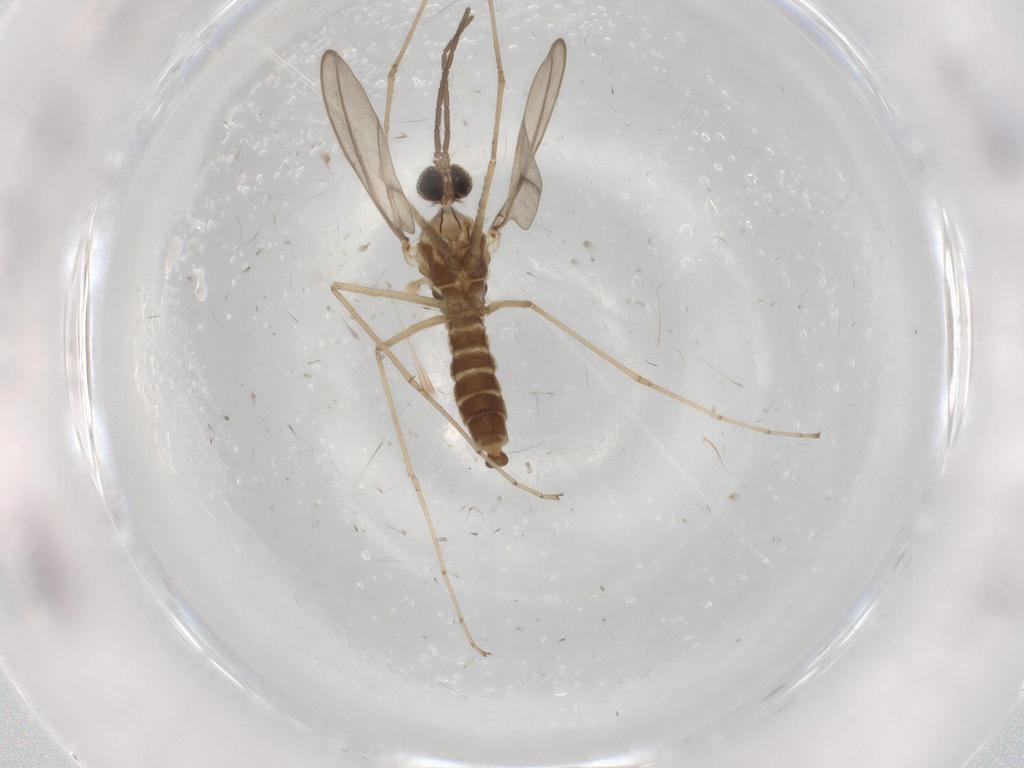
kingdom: Animalia
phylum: Arthropoda
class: Insecta
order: Diptera
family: Cecidomyiidae
